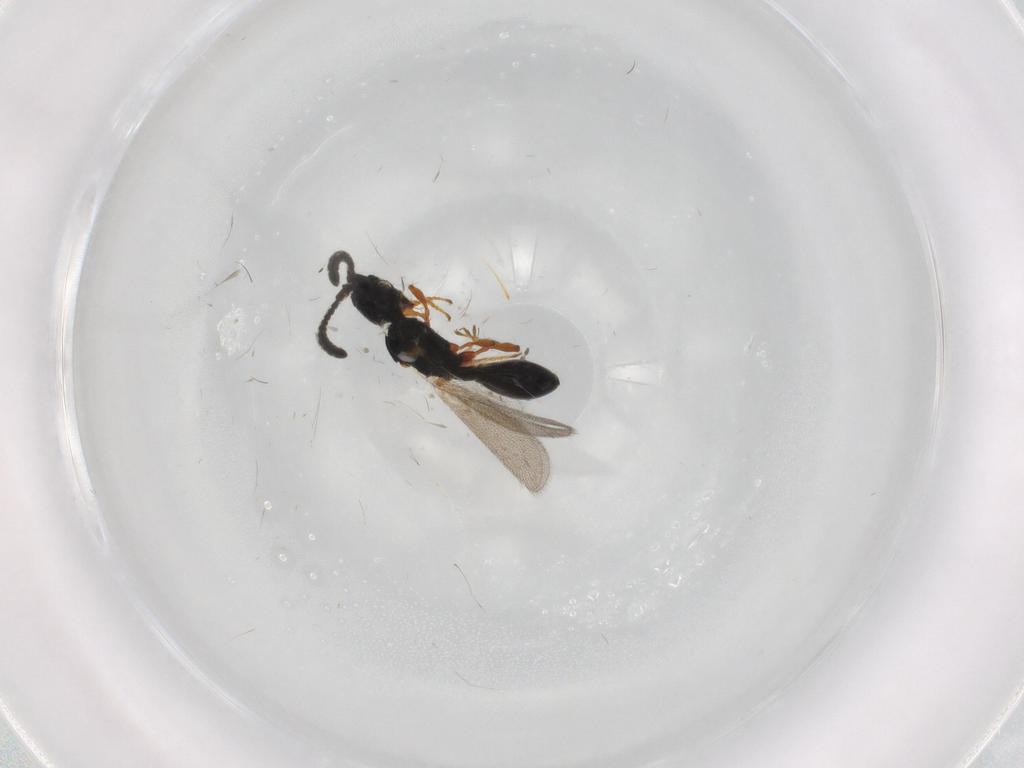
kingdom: Animalia
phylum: Arthropoda
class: Insecta
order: Hymenoptera
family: Diapriidae
